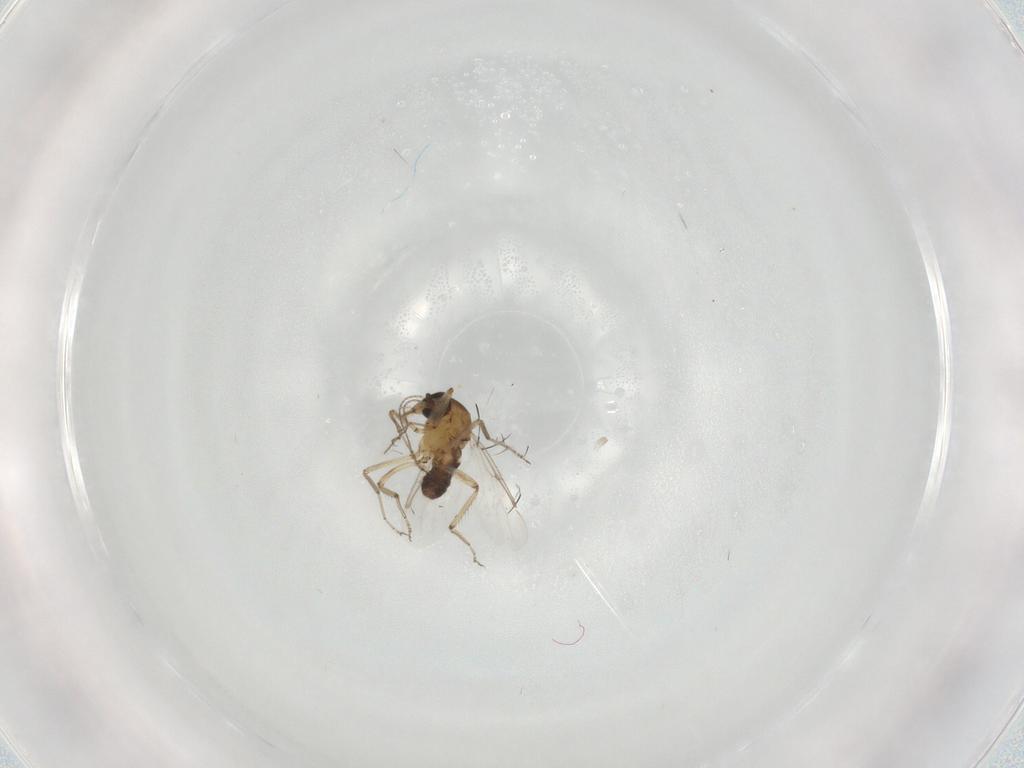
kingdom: Animalia
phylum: Arthropoda
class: Insecta
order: Diptera
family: Ceratopogonidae
